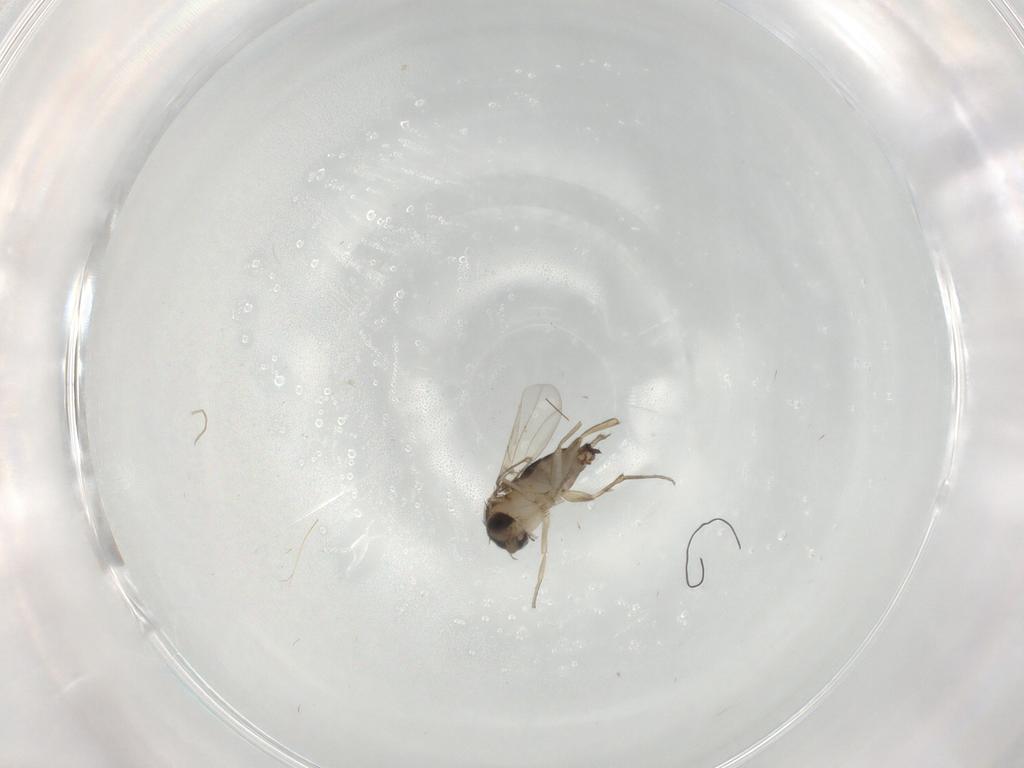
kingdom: Animalia
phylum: Arthropoda
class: Insecta
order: Diptera
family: Cecidomyiidae
